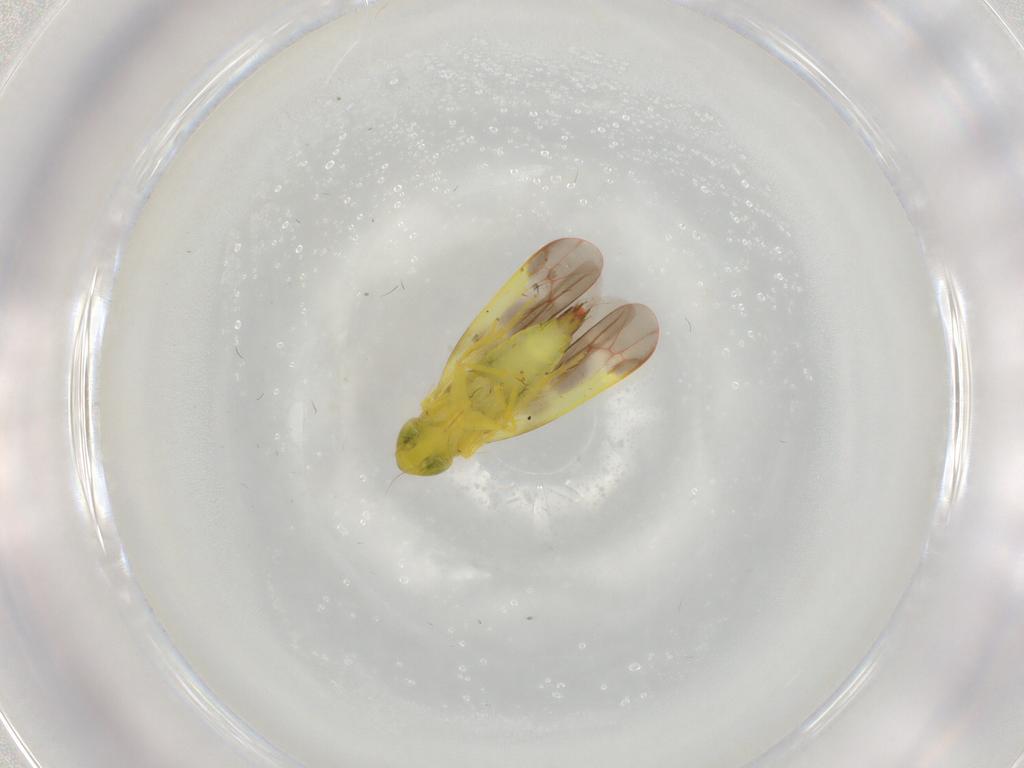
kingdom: Animalia
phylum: Arthropoda
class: Insecta
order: Hemiptera
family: Cicadellidae
